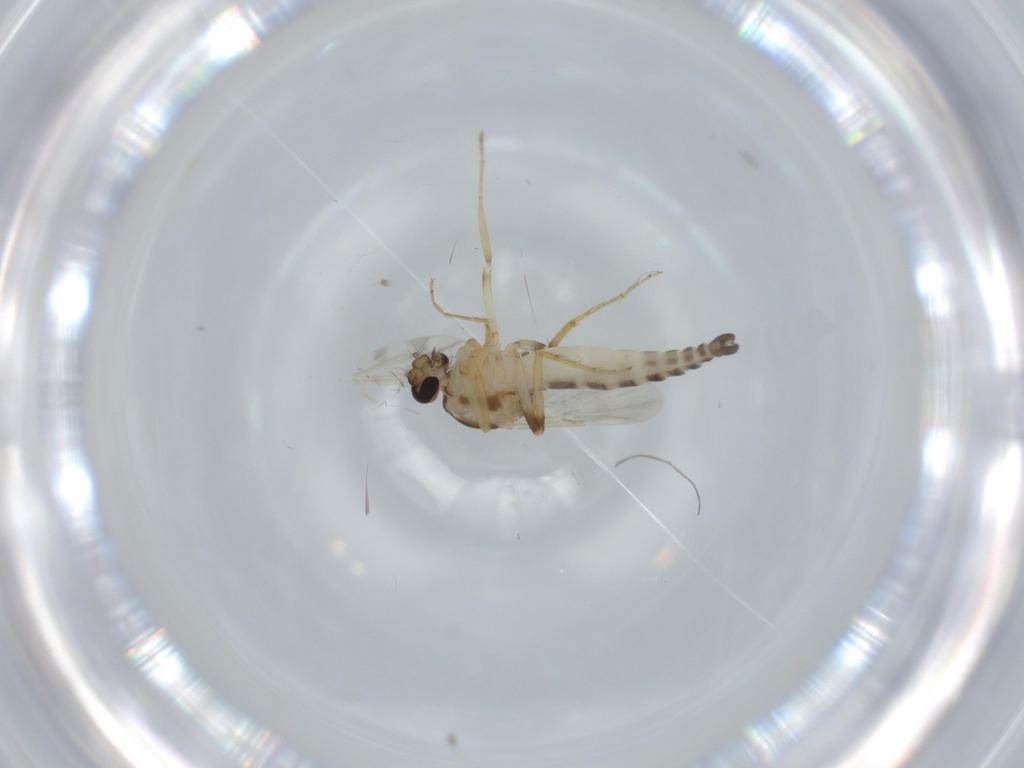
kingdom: Animalia
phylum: Arthropoda
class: Insecta
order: Diptera
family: Ceratopogonidae
